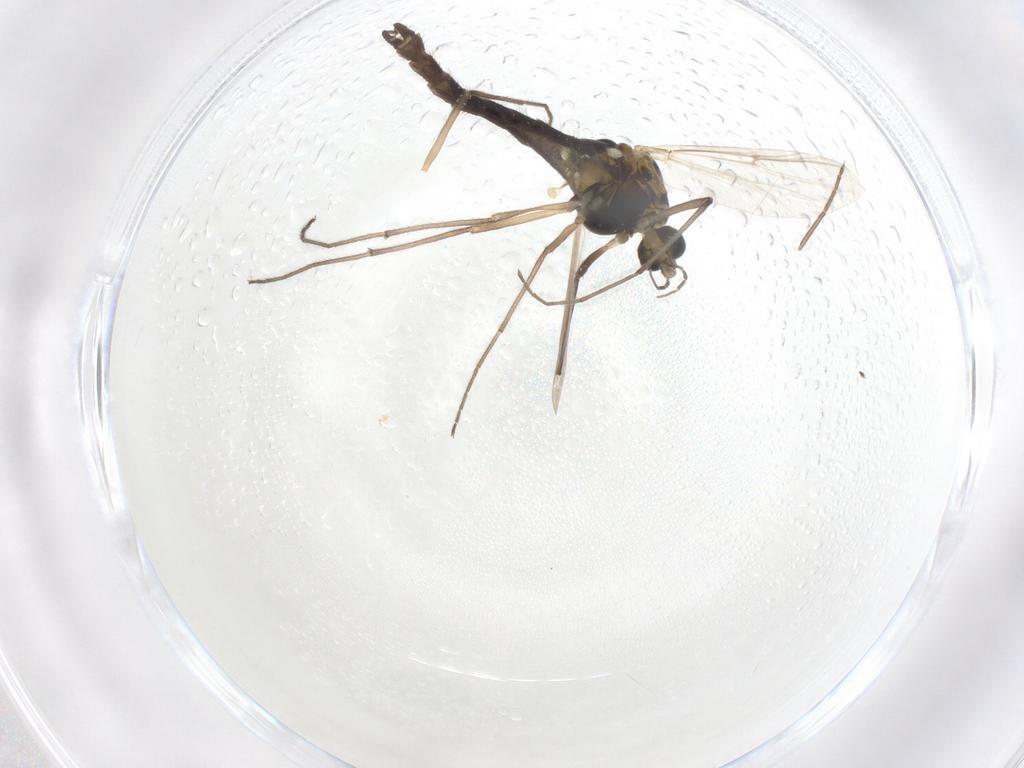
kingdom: Animalia
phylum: Arthropoda
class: Insecta
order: Diptera
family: Chironomidae
